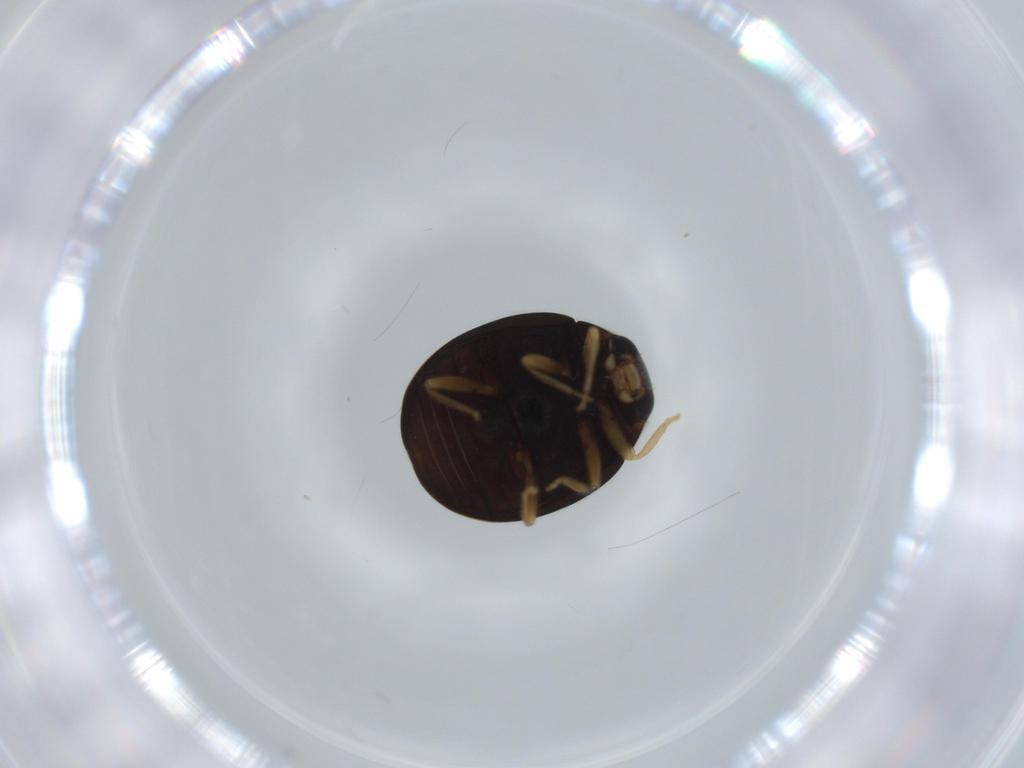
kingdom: Animalia
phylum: Arthropoda
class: Insecta
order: Coleoptera
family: Coccinellidae
